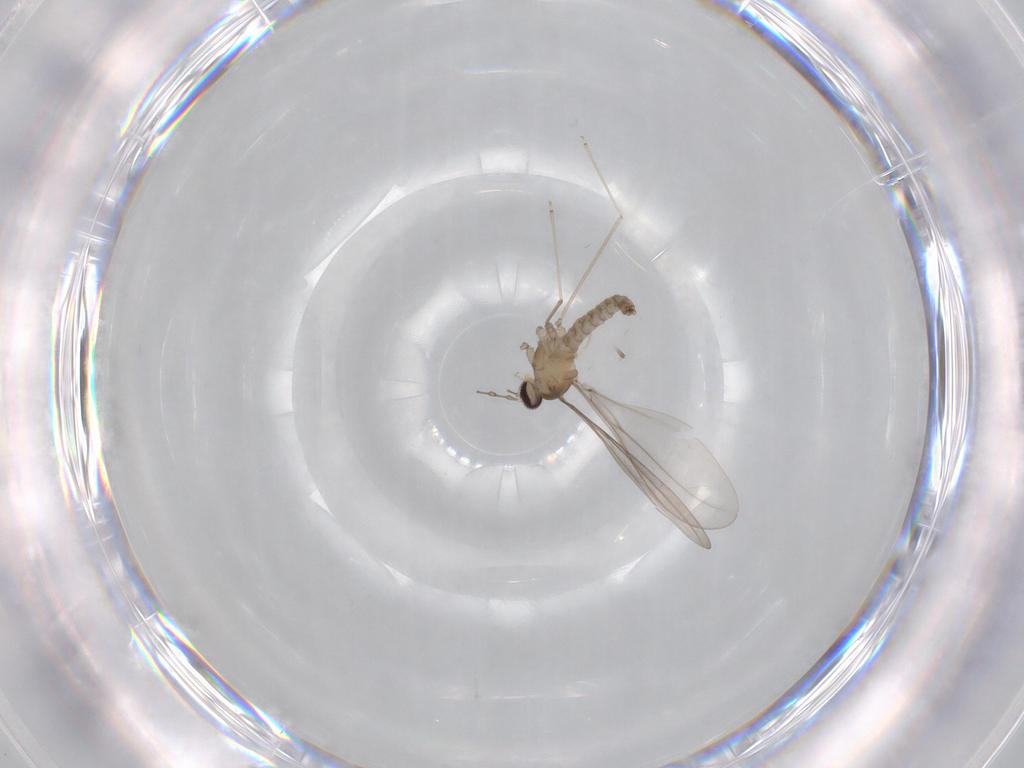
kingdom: Animalia
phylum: Arthropoda
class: Insecta
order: Diptera
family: Cecidomyiidae
